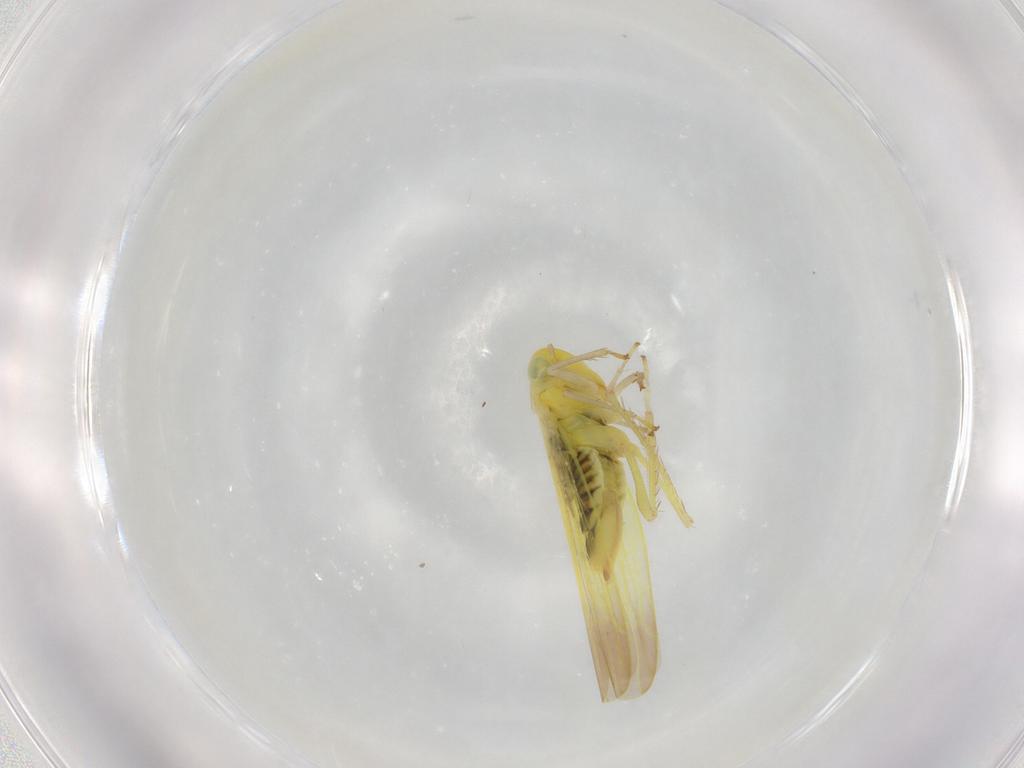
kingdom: Animalia
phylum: Arthropoda
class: Insecta
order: Hemiptera
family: Cicadellidae
